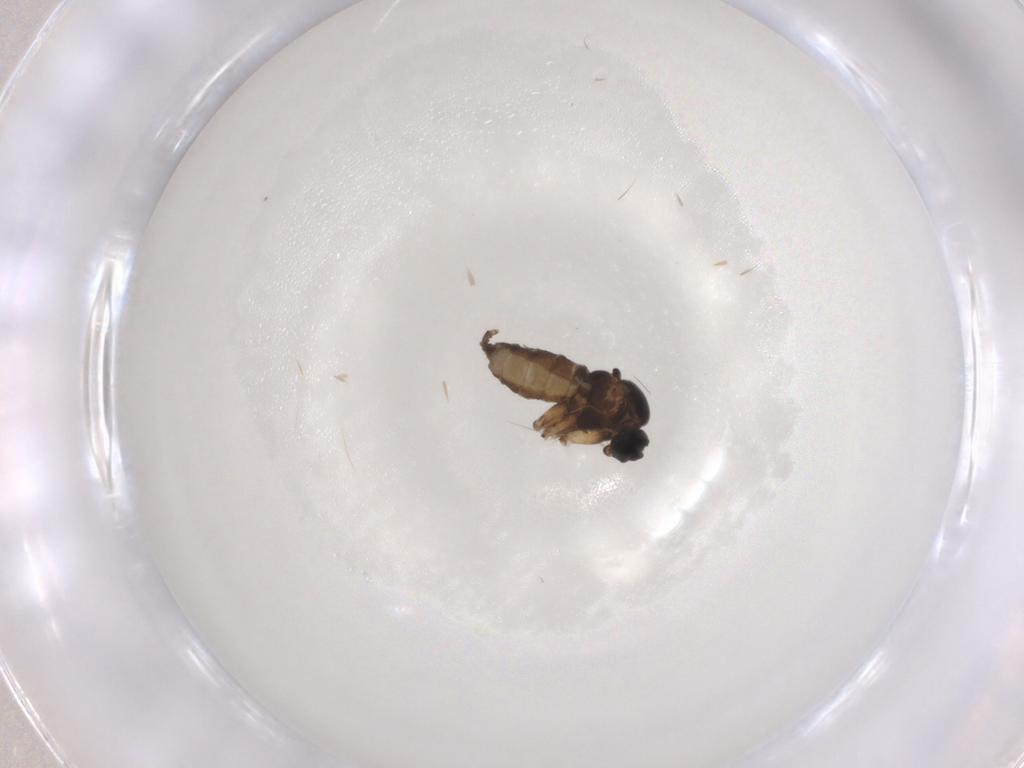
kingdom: Animalia
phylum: Arthropoda
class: Insecta
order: Diptera
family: Sciaridae
